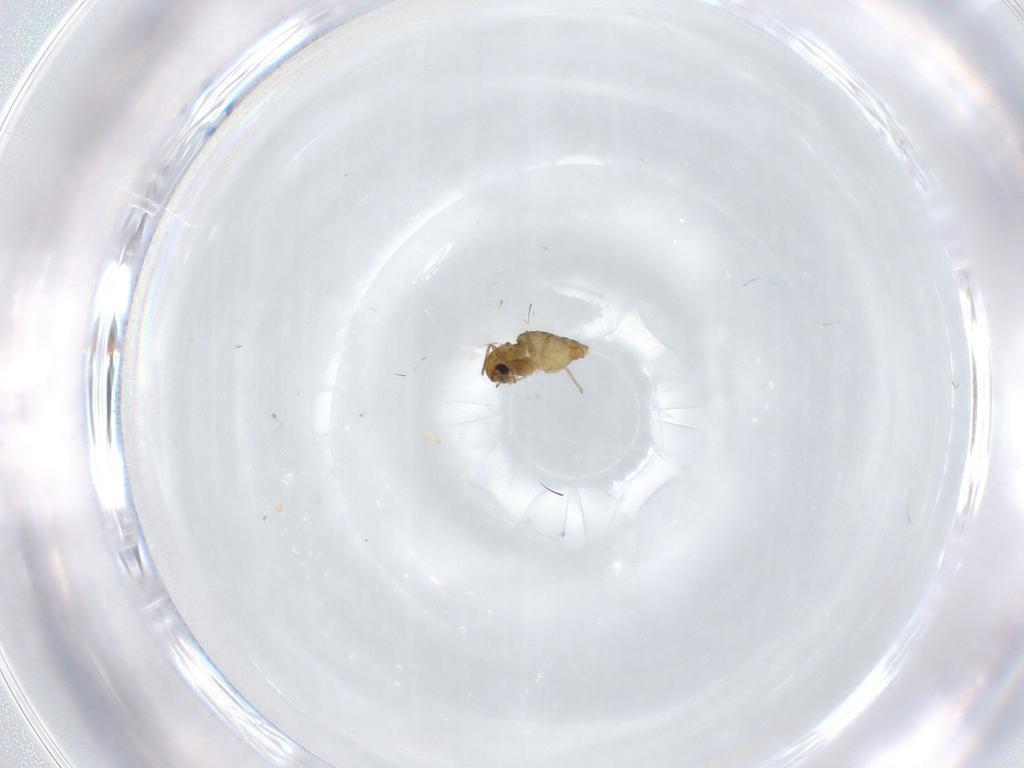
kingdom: Animalia
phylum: Arthropoda
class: Insecta
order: Diptera
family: Chironomidae
